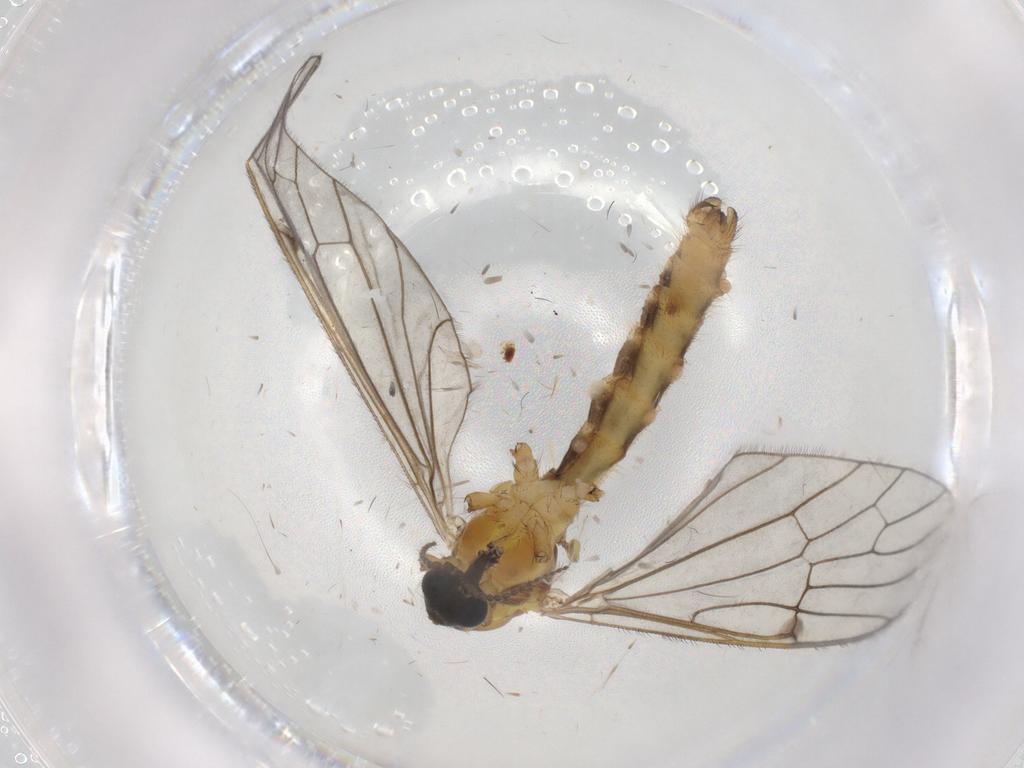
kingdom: Animalia
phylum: Arthropoda
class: Insecta
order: Diptera
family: Limoniidae
